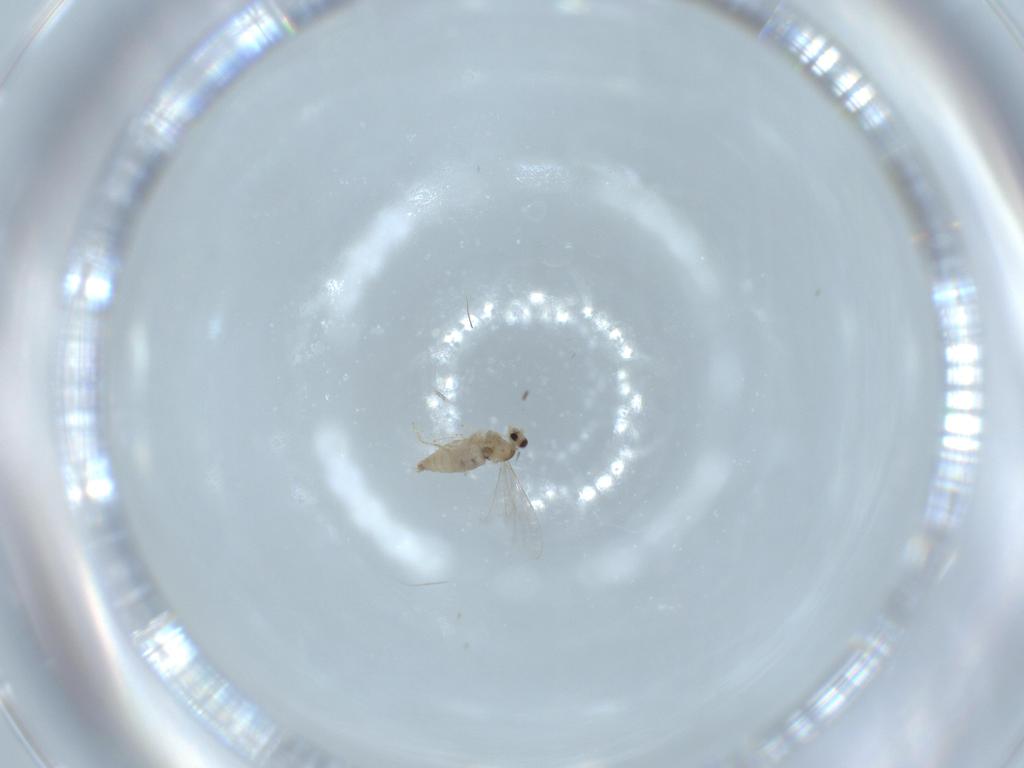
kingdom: Animalia
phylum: Arthropoda
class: Insecta
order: Diptera
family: Cecidomyiidae
